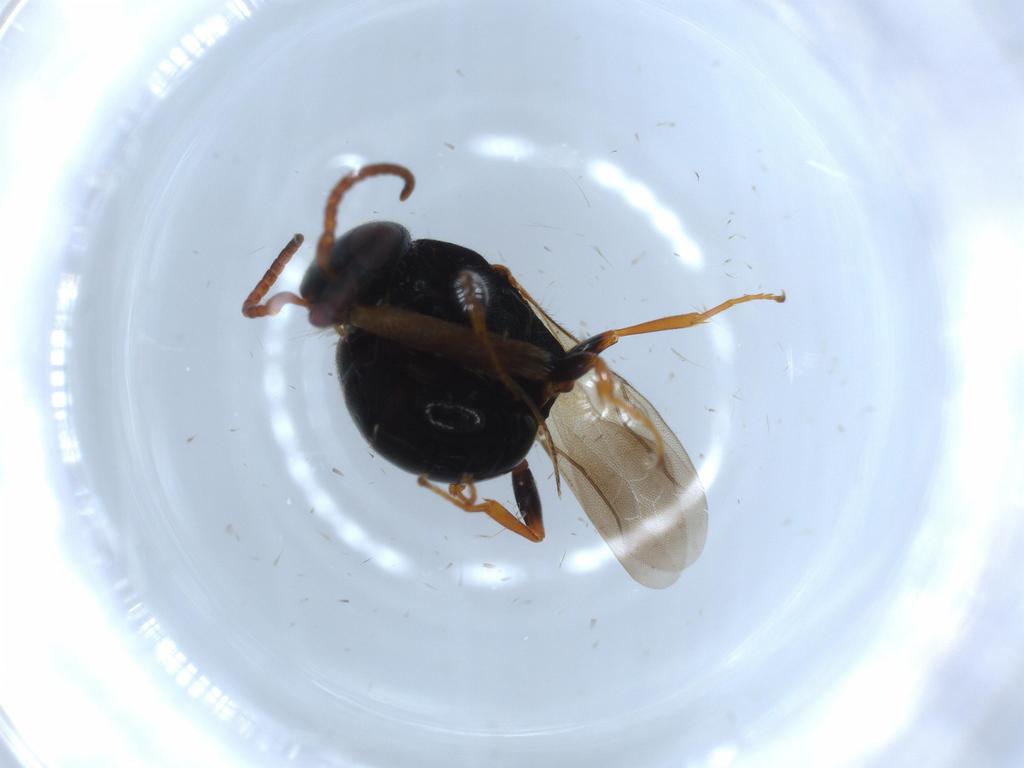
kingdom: Animalia
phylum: Arthropoda
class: Insecta
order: Hymenoptera
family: Bethylidae
